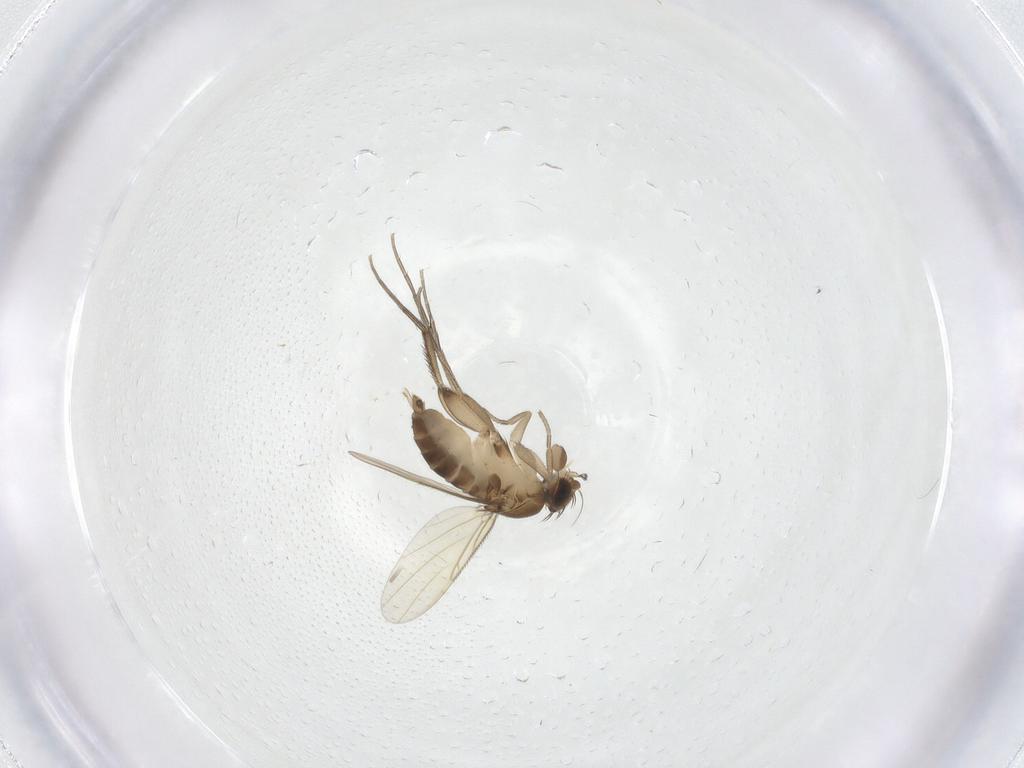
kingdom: Animalia
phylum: Arthropoda
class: Insecta
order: Diptera
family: Phoridae
